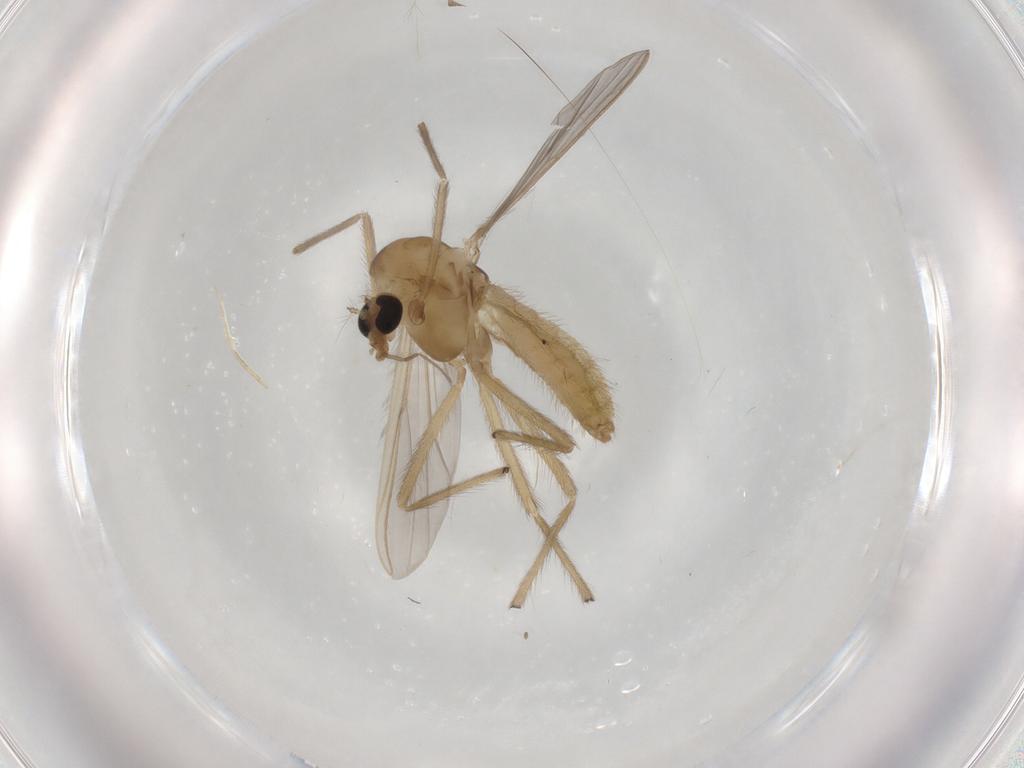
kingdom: Animalia
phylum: Arthropoda
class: Insecta
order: Diptera
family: Chironomidae
